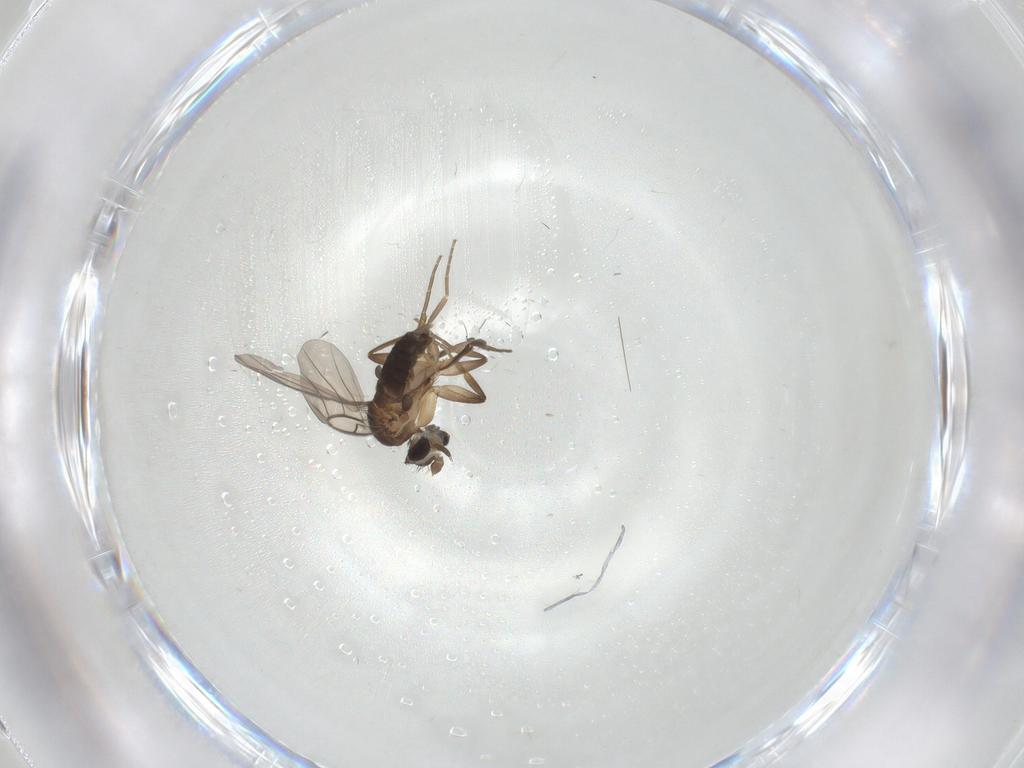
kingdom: Animalia
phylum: Arthropoda
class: Insecta
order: Diptera
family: Phoridae
